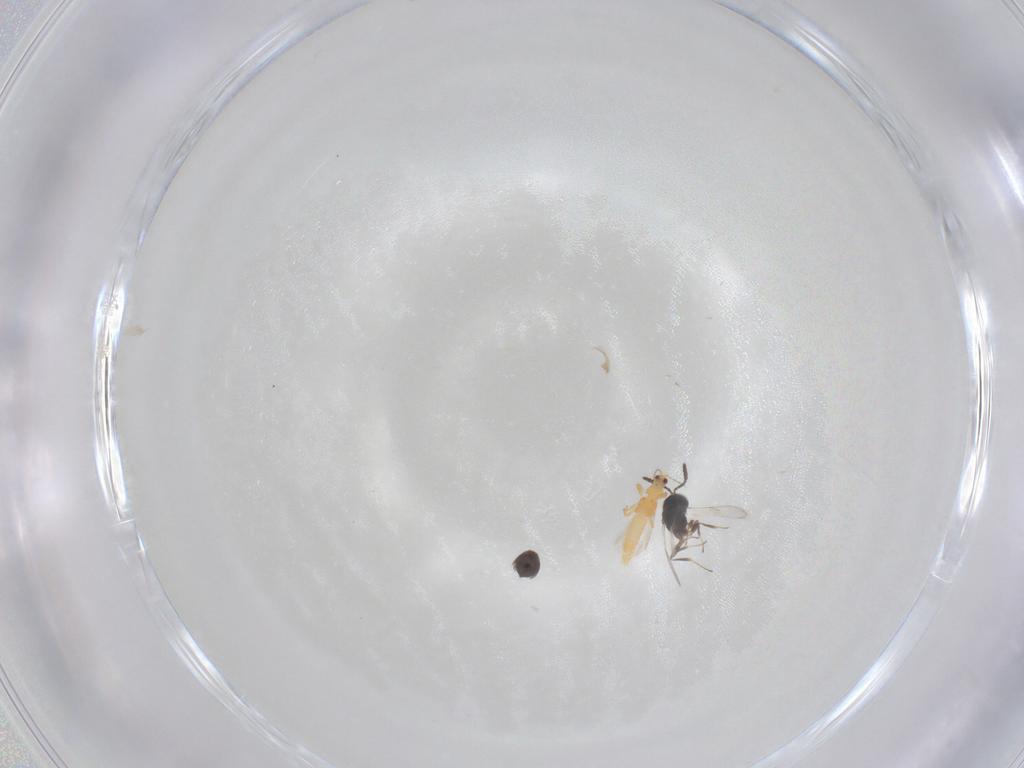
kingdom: Animalia
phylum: Arthropoda
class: Insecta
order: Hymenoptera
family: Scelionidae
